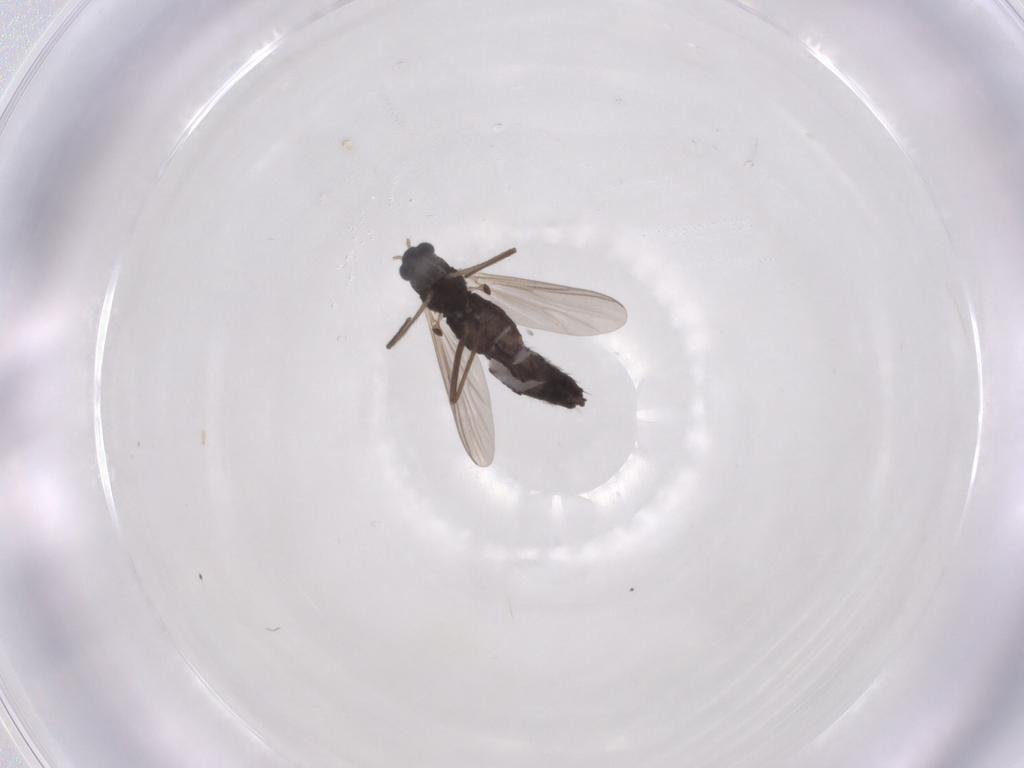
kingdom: Animalia
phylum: Arthropoda
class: Insecta
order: Diptera
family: Chironomidae
